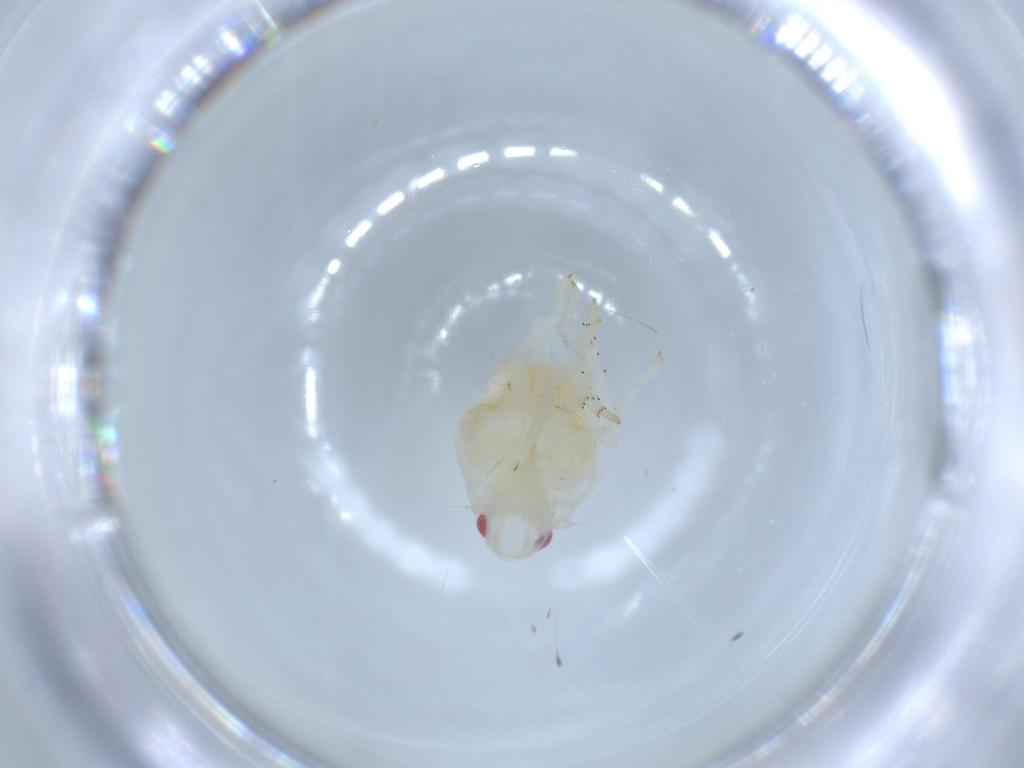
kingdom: Animalia
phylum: Arthropoda
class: Insecta
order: Hemiptera
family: Flatidae
